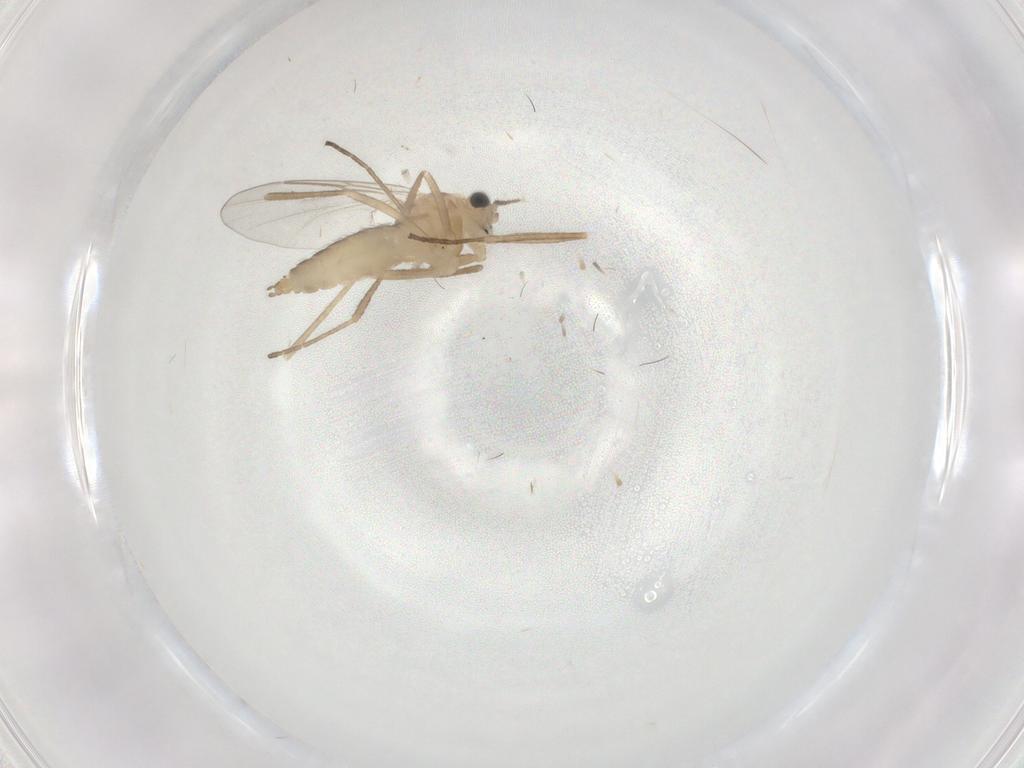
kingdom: Animalia
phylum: Arthropoda
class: Insecta
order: Diptera
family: Cecidomyiidae
